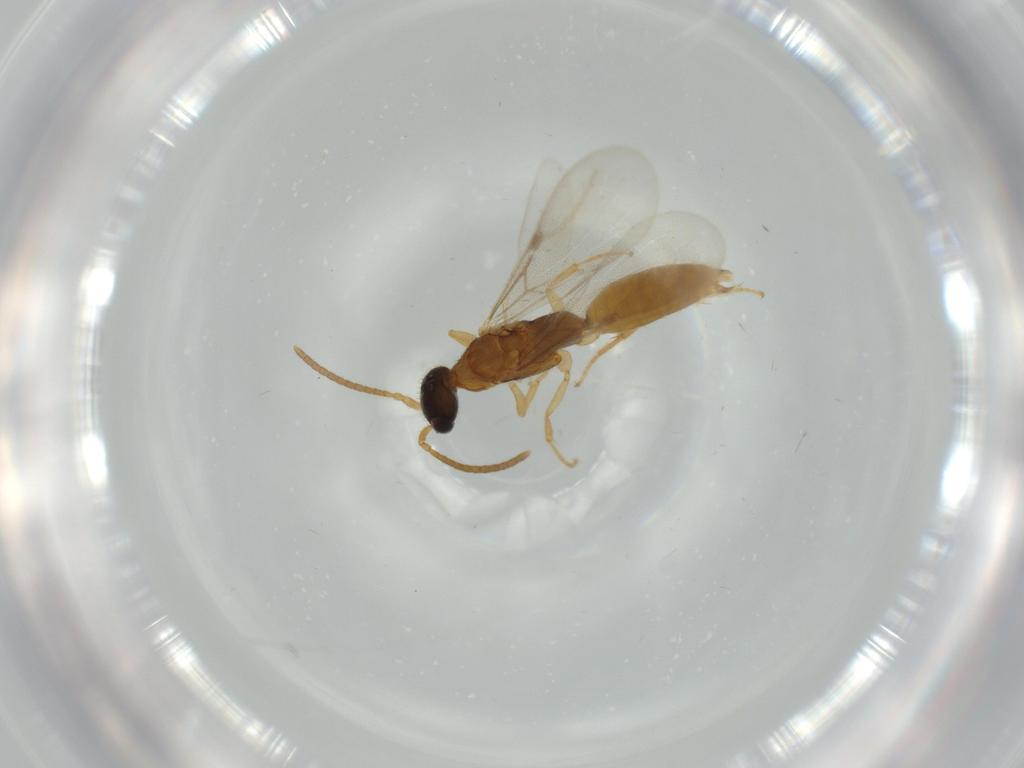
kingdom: Animalia
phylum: Arthropoda
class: Insecta
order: Hymenoptera
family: Bethylidae
